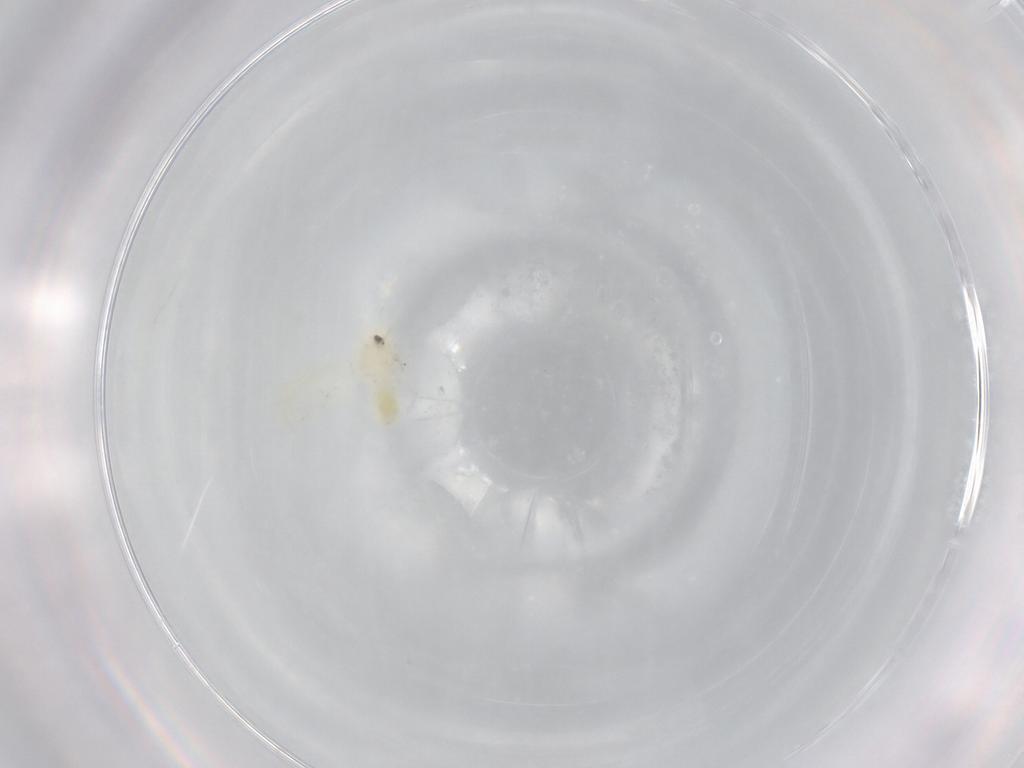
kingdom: Animalia
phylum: Arthropoda
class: Insecta
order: Hemiptera
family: Aleyrodidae
